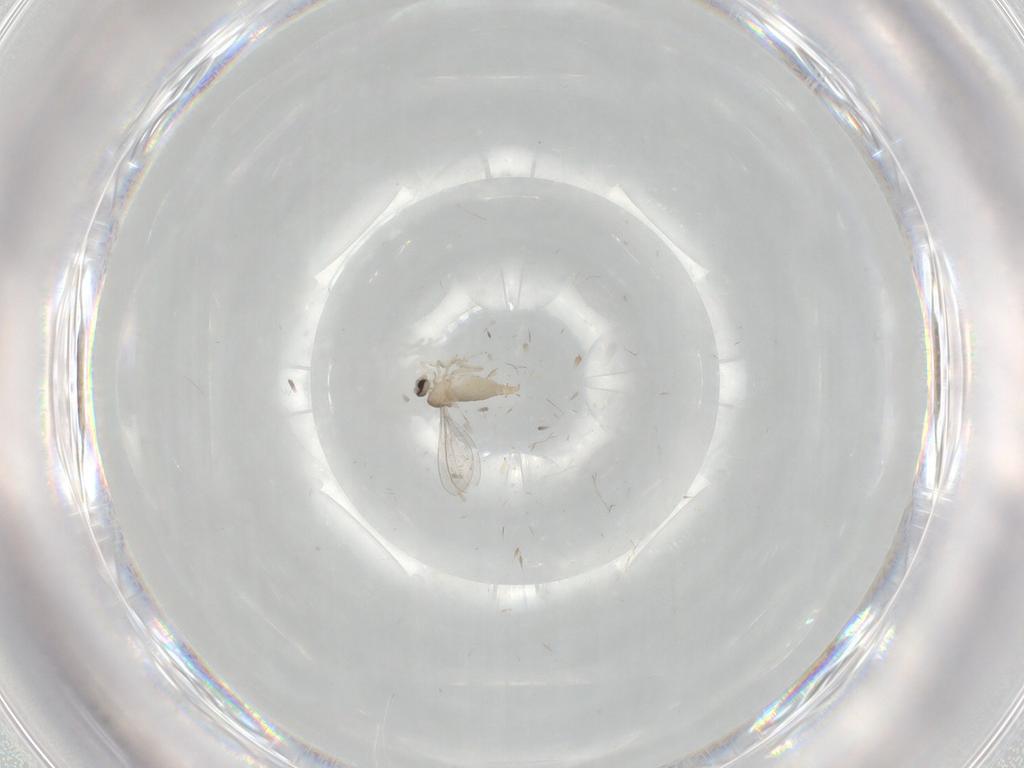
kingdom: Animalia
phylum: Arthropoda
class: Insecta
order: Diptera
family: Cecidomyiidae
